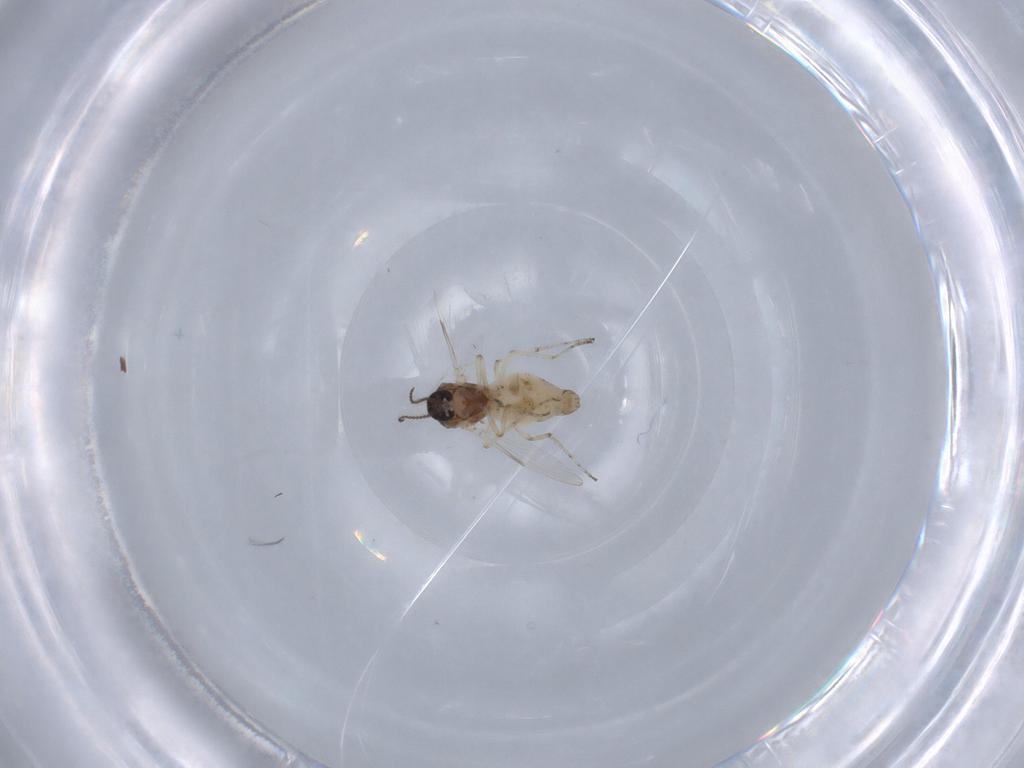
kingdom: Animalia
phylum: Arthropoda
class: Insecta
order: Diptera
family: Ceratopogonidae
